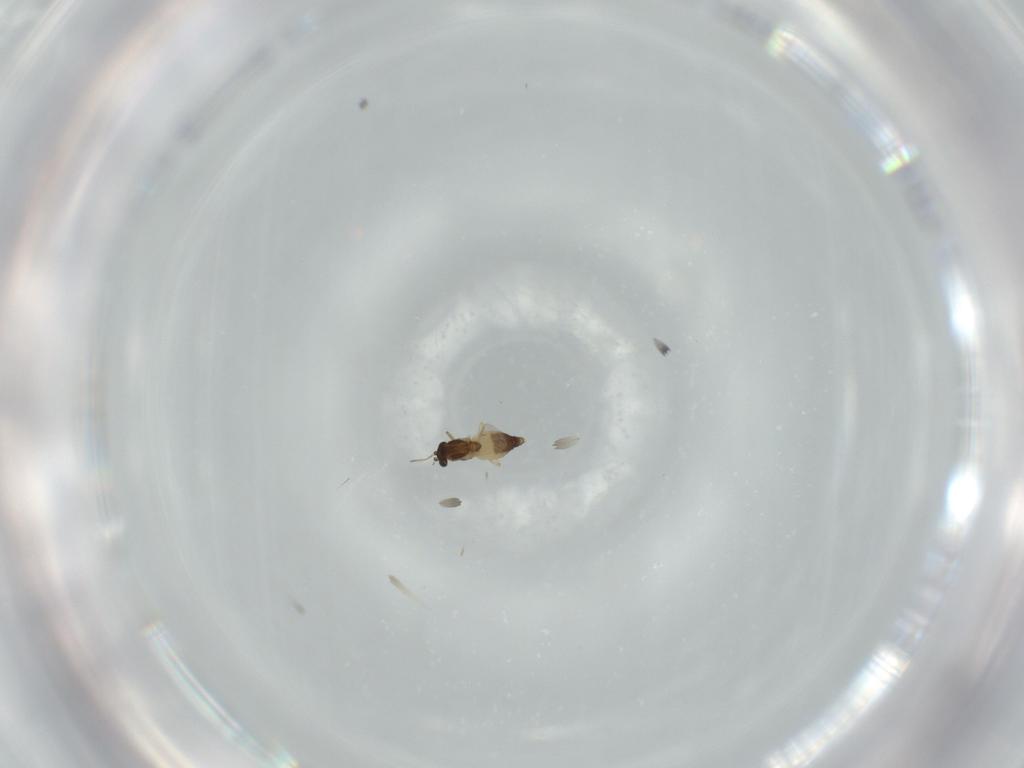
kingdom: Animalia
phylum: Arthropoda
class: Insecta
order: Diptera
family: Chironomidae
